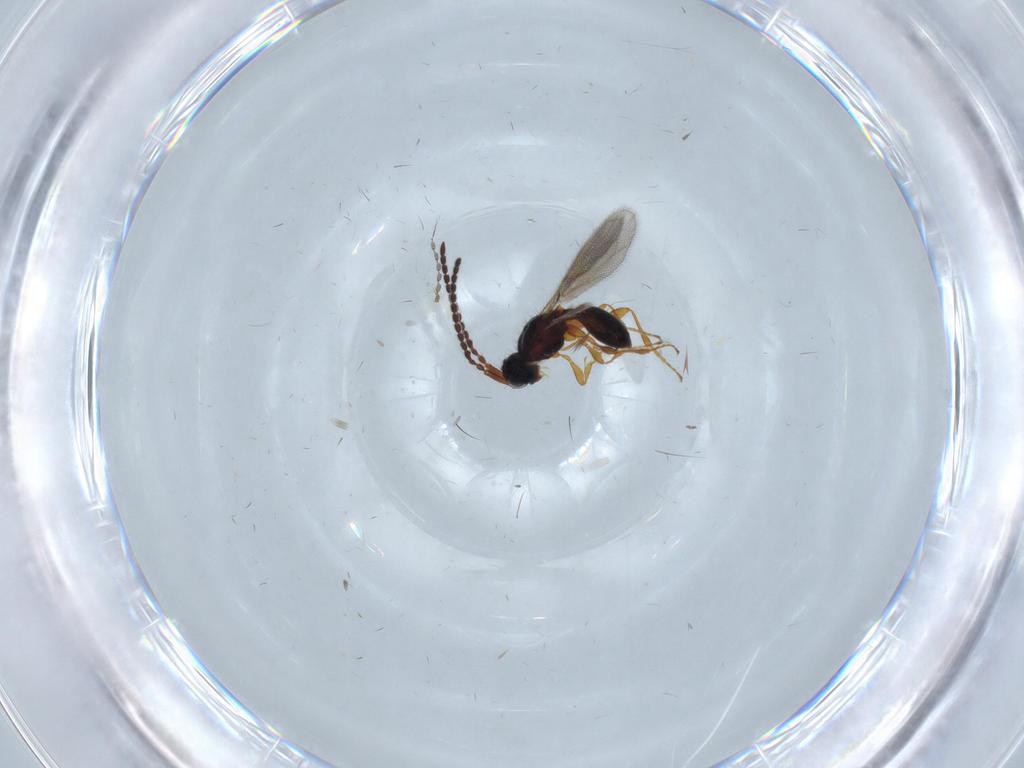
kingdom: Animalia
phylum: Arthropoda
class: Insecta
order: Hymenoptera
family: Diapriidae
